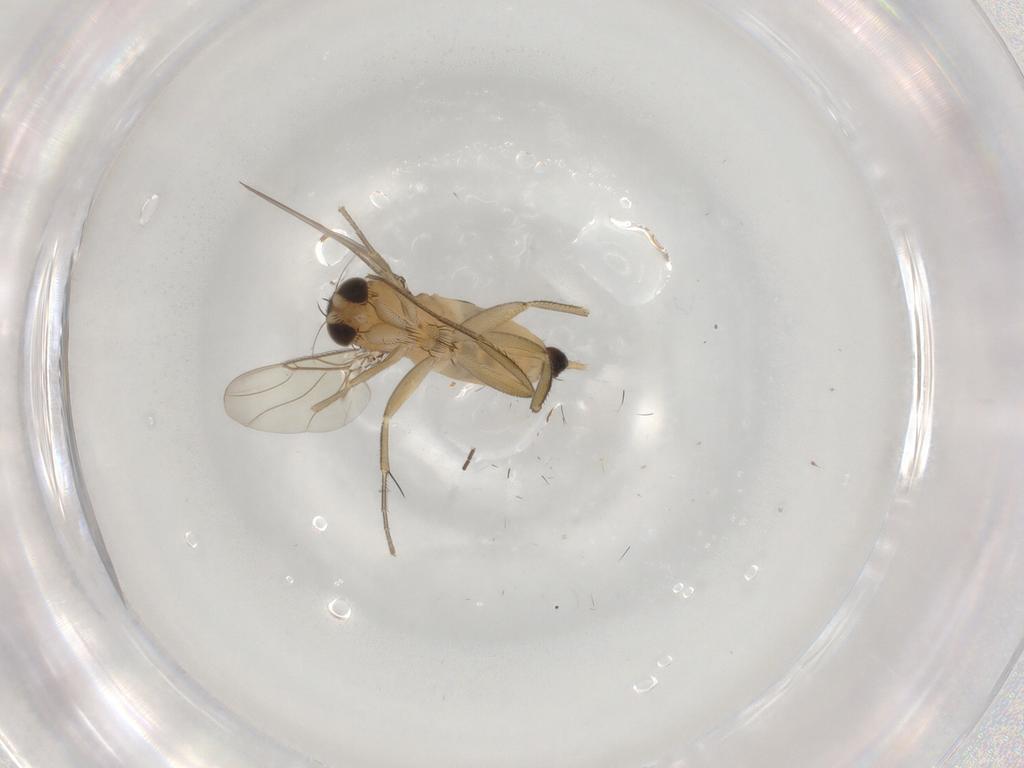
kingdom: Animalia
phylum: Arthropoda
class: Insecta
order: Diptera
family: Phoridae
